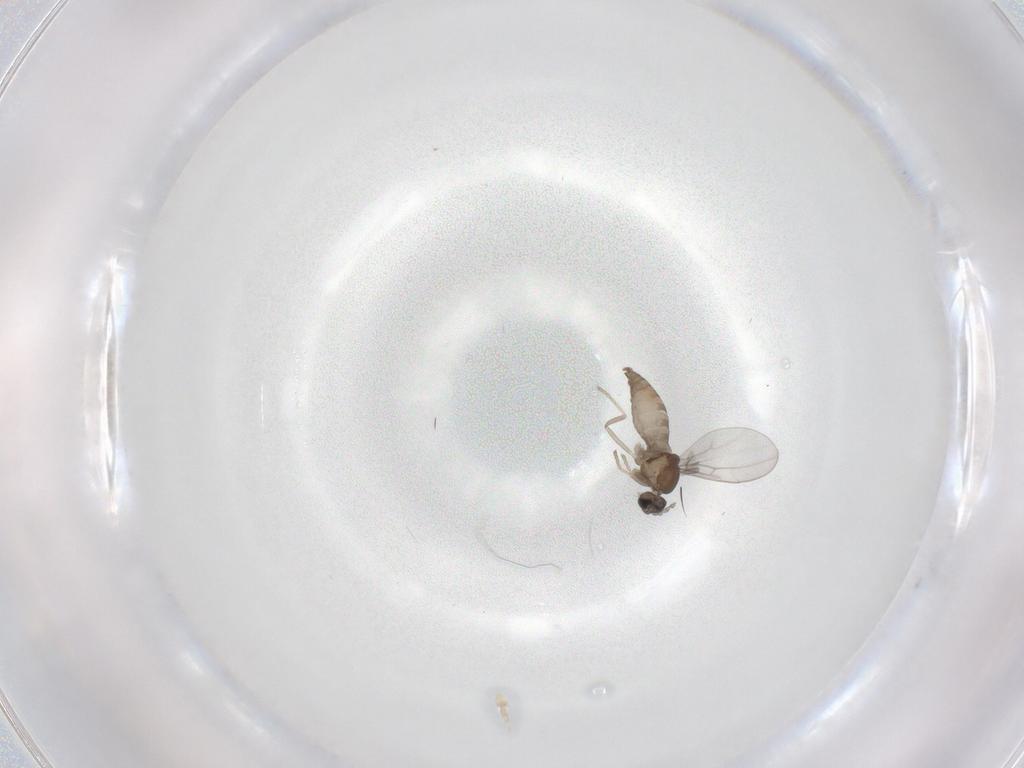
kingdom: Animalia
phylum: Arthropoda
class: Insecta
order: Diptera
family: Cecidomyiidae
